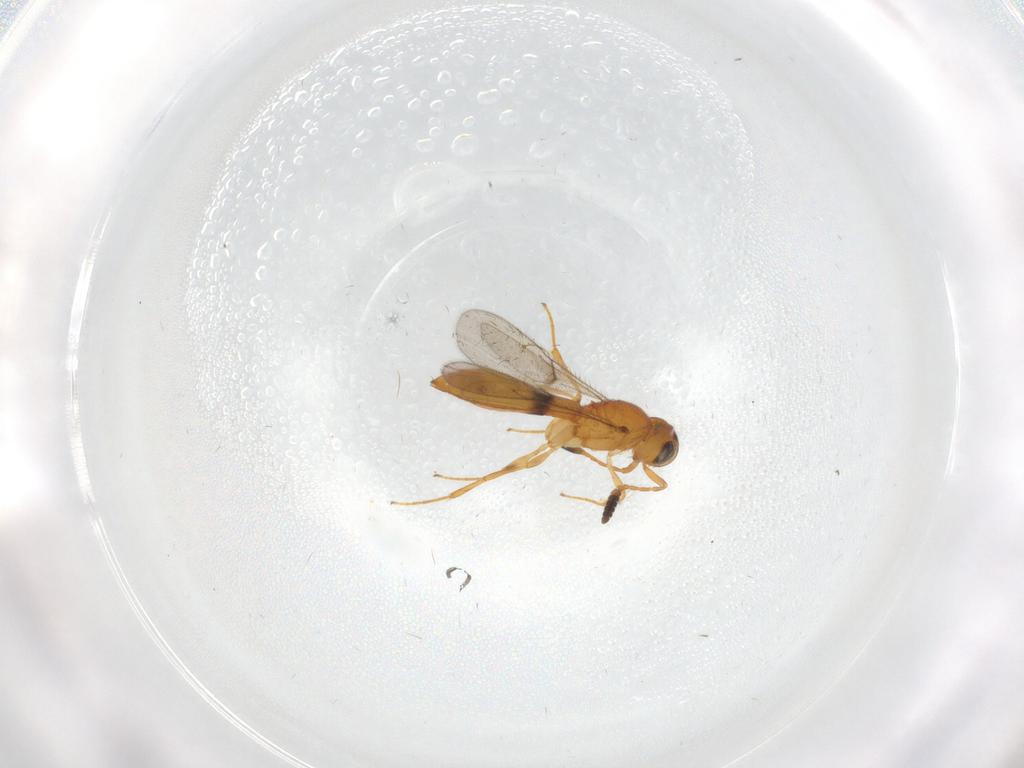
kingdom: Animalia
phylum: Arthropoda
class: Insecta
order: Hymenoptera
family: Scelionidae
